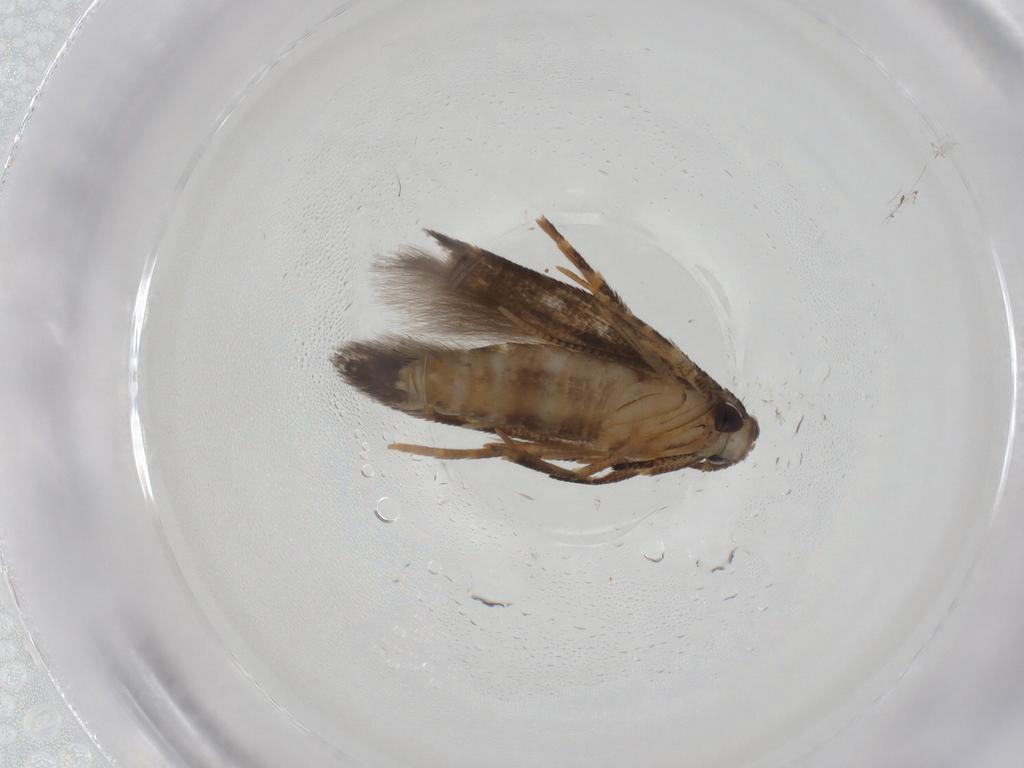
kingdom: Animalia
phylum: Arthropoda
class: Insecta
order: Lepidoptera
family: Cosmopterigidae
